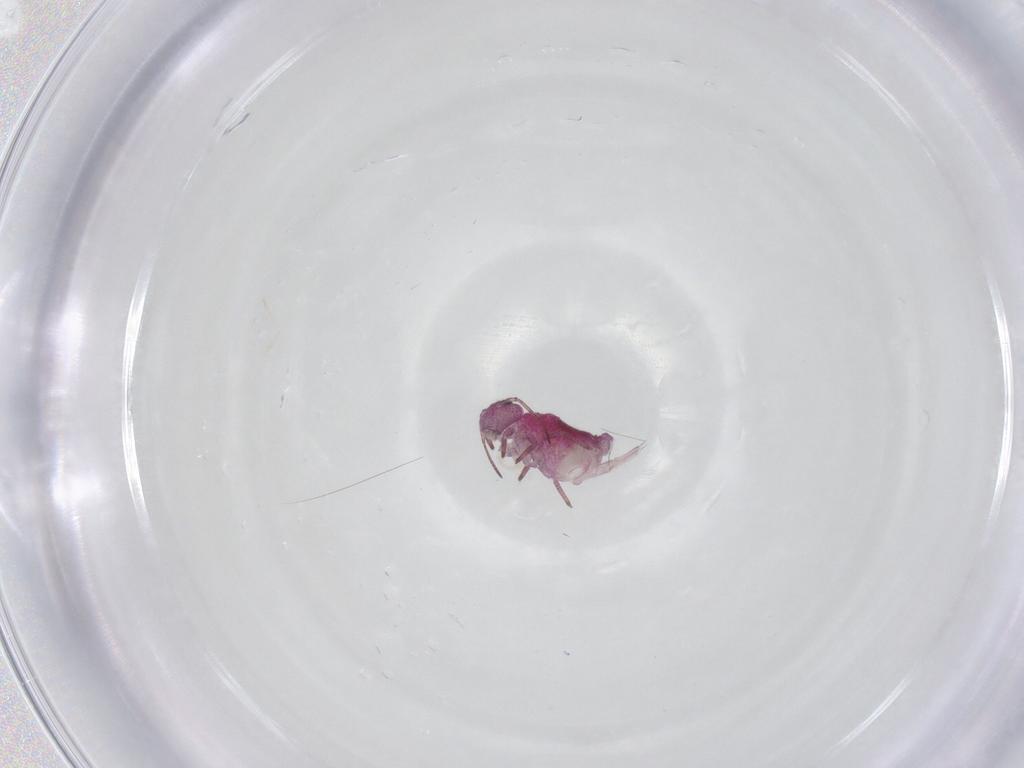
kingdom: Animalia
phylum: Arthropoda
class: Collembola
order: Symphypleona
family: Sminthuridae
